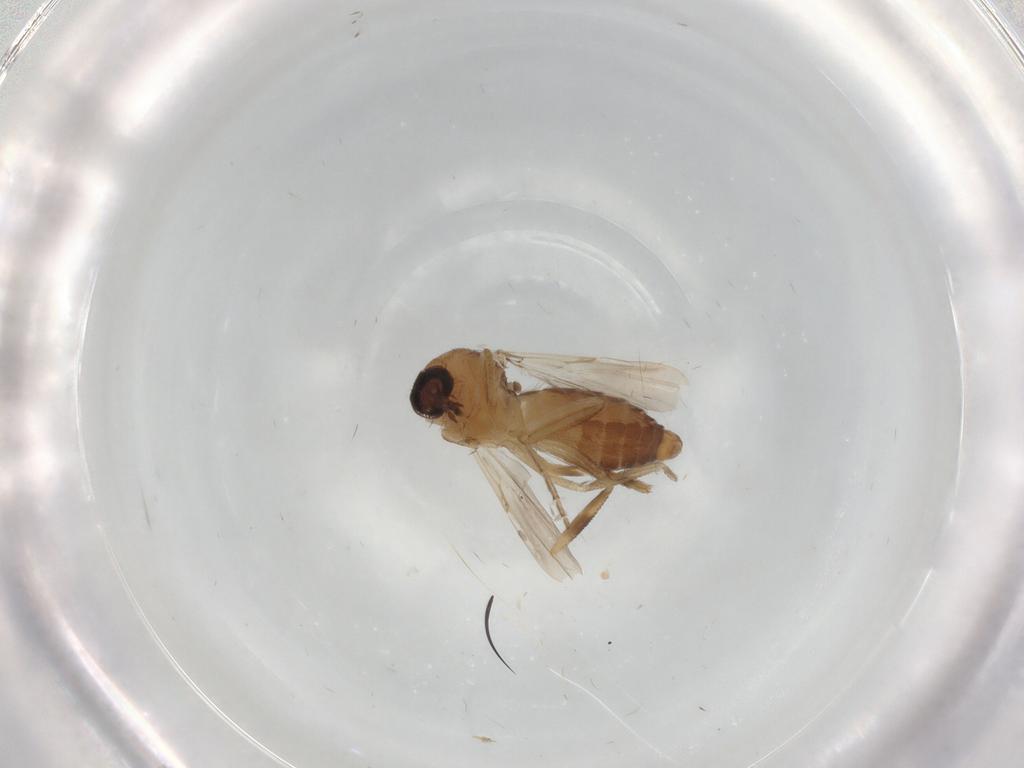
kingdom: Animalia
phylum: Arthropoda
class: Insecta
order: Diptera
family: Ceratopogonidae
